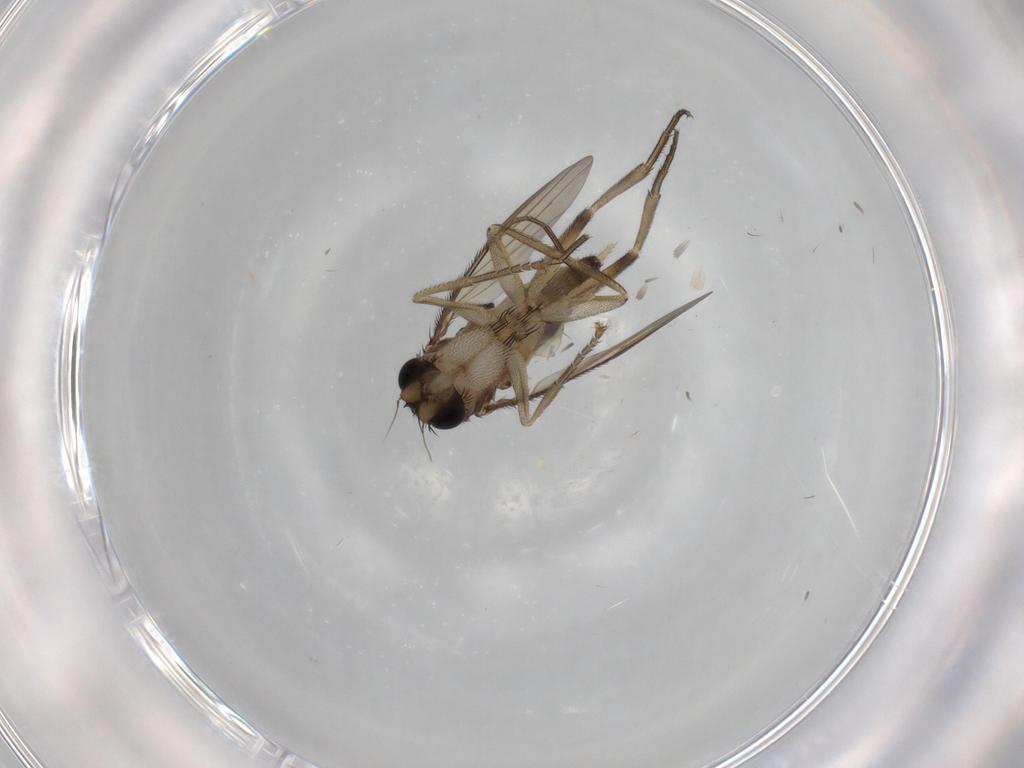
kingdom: Animalia
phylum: Arthropoda
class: Insecta
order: Diptera
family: Phoridae
